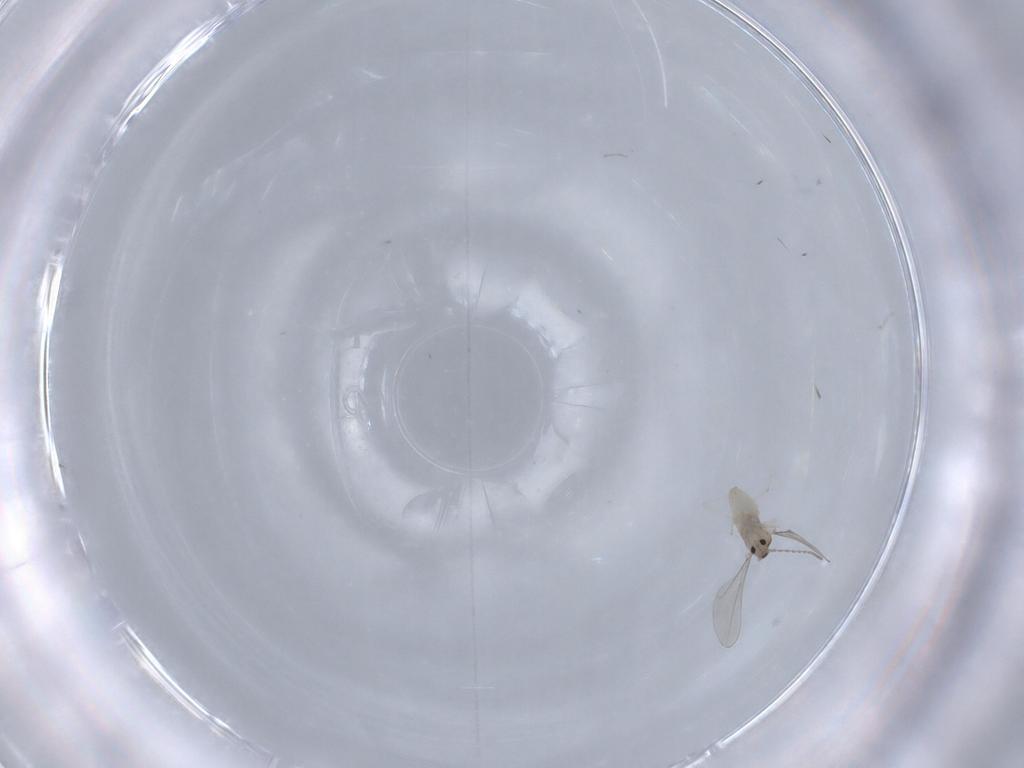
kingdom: Animalia
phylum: Arthropoda
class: Insecta
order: Diptera
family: Cecidomyiidae
